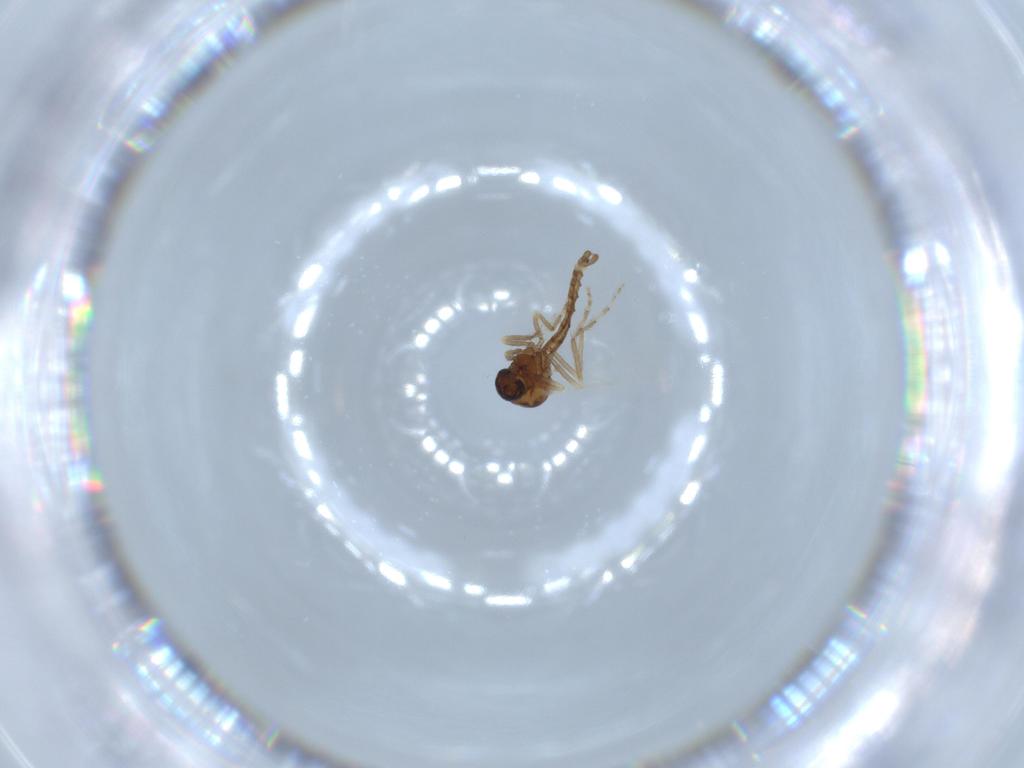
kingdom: Animalia
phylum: Arthropoda
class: Insecta
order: Diptera
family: Ceratopogonidae
